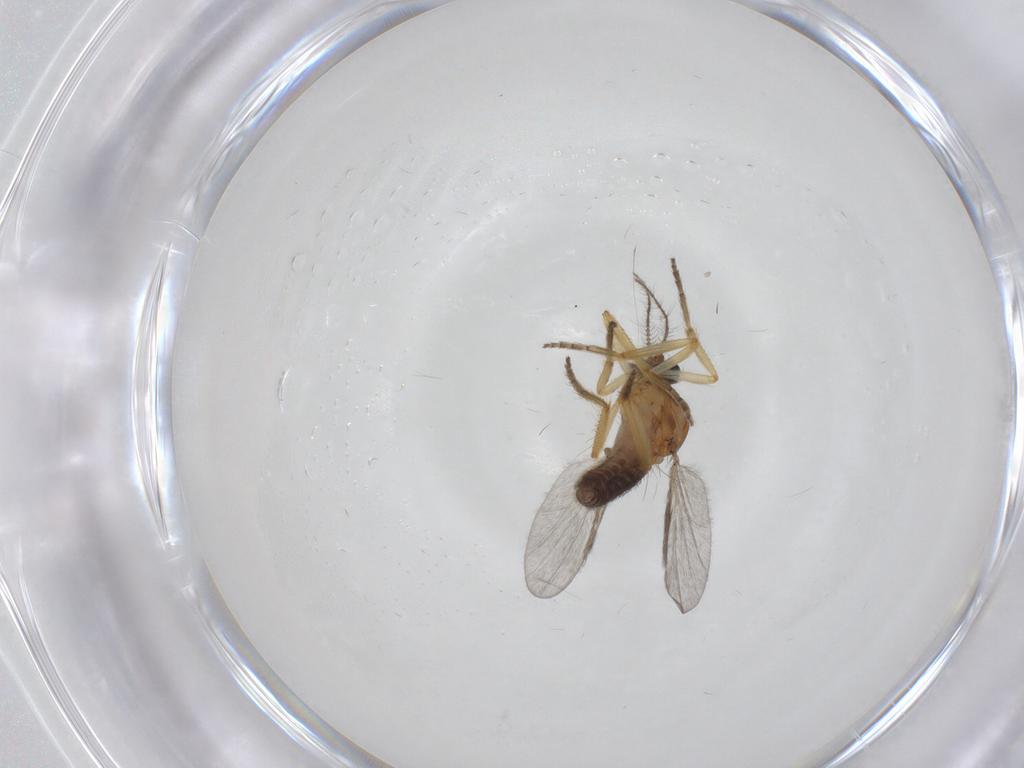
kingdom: Animalia
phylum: Arthropoda
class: Insecta
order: Diptera
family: Ceratopogonidae
